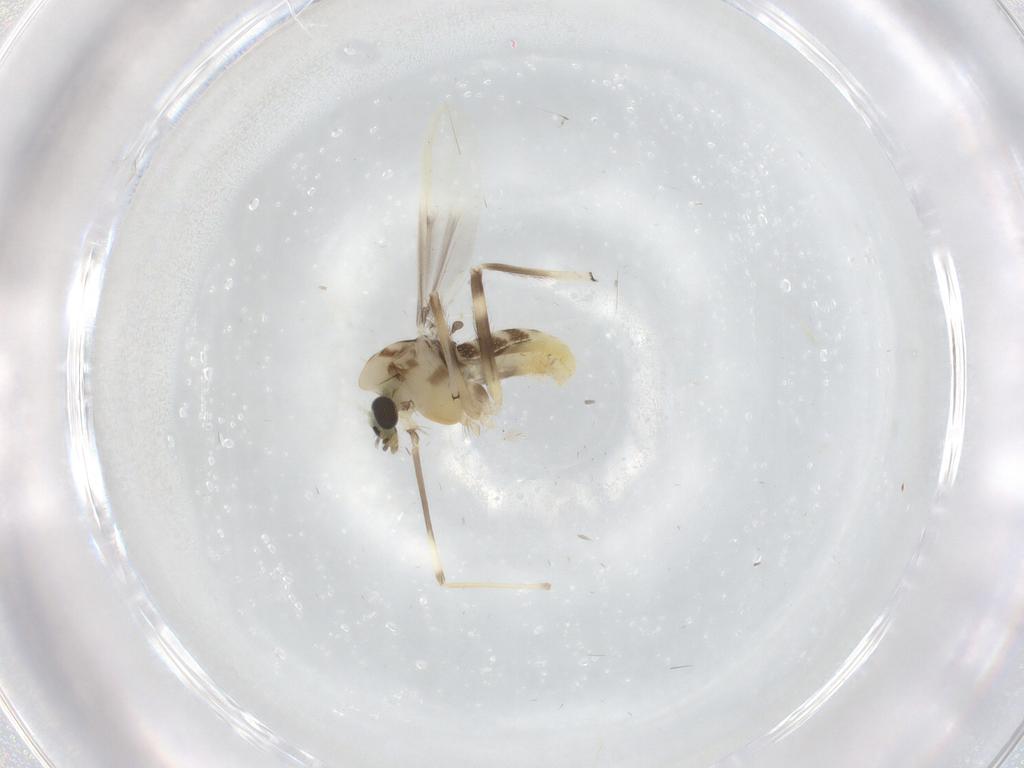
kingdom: Animalia
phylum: Arthropoda
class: Insecta
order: Diptera
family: Chironomidae
